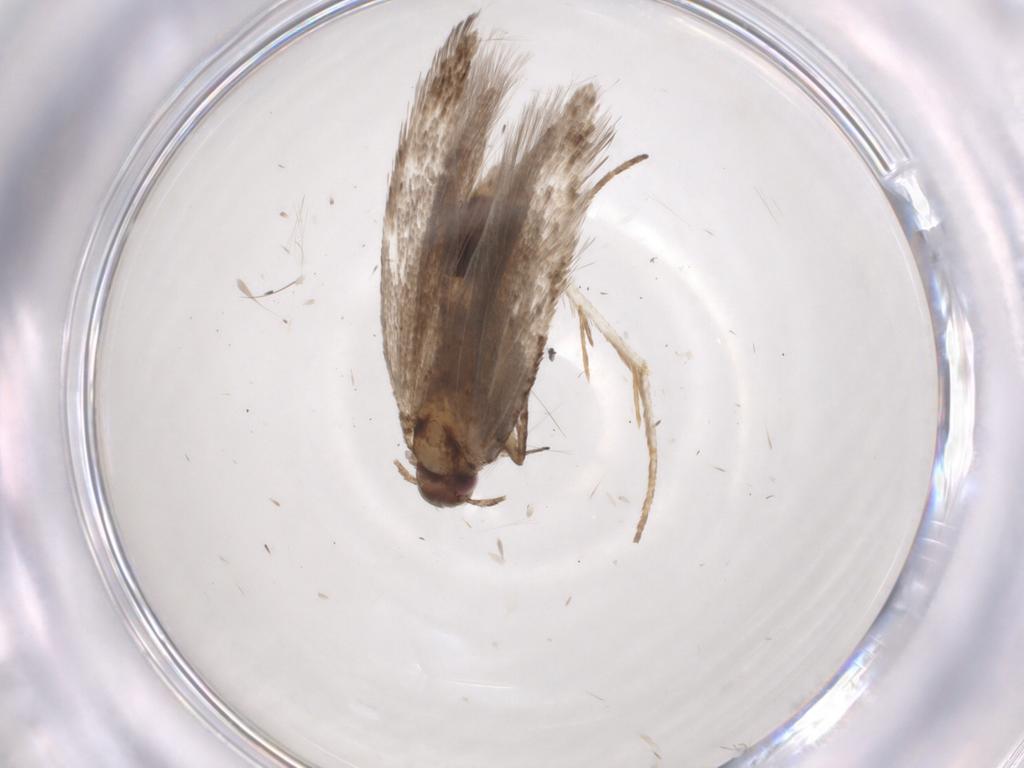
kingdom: Animalia
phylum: Arthropoda
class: Insecta
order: Lepidoptera
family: Gelechiidae
